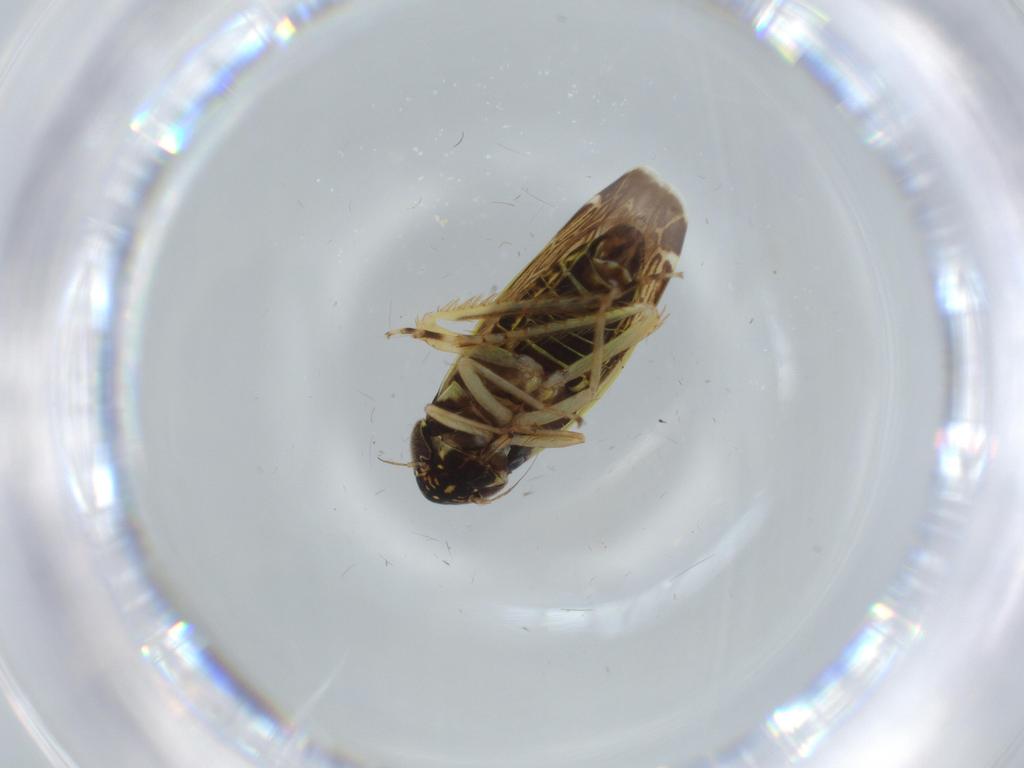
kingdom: Animalia
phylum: Arthropoda
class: Insecta
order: Hemiptera
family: Cicadellidae
